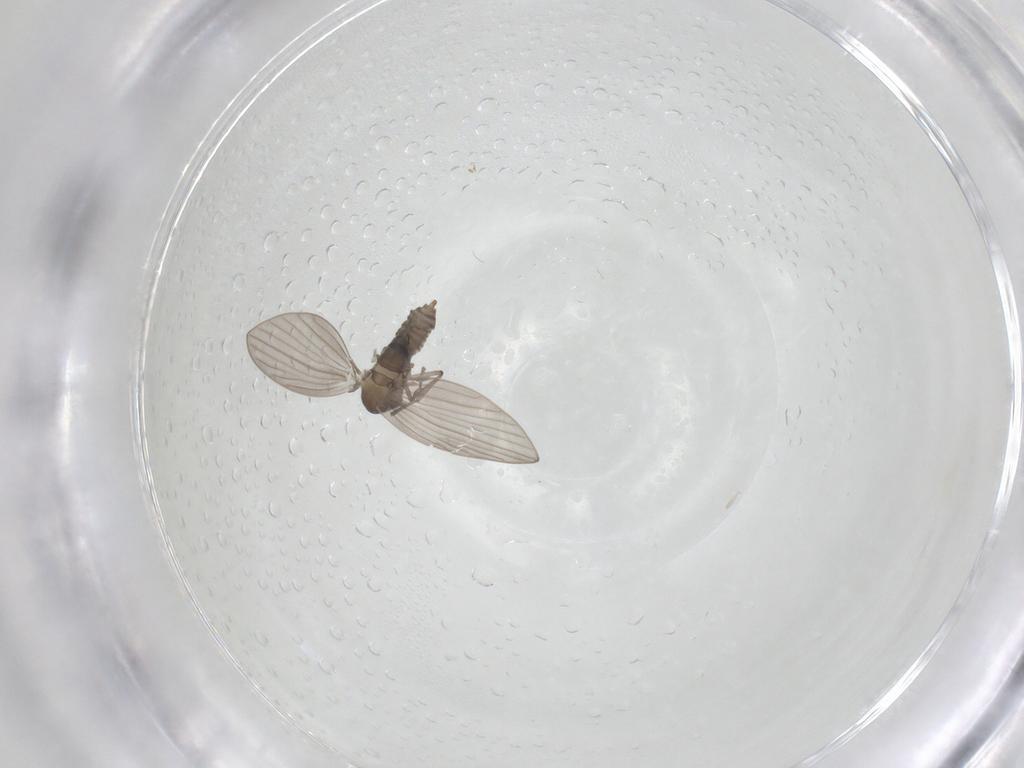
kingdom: Animalia
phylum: Arthropoda
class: Insecta
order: Diptera
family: Psychodidae
